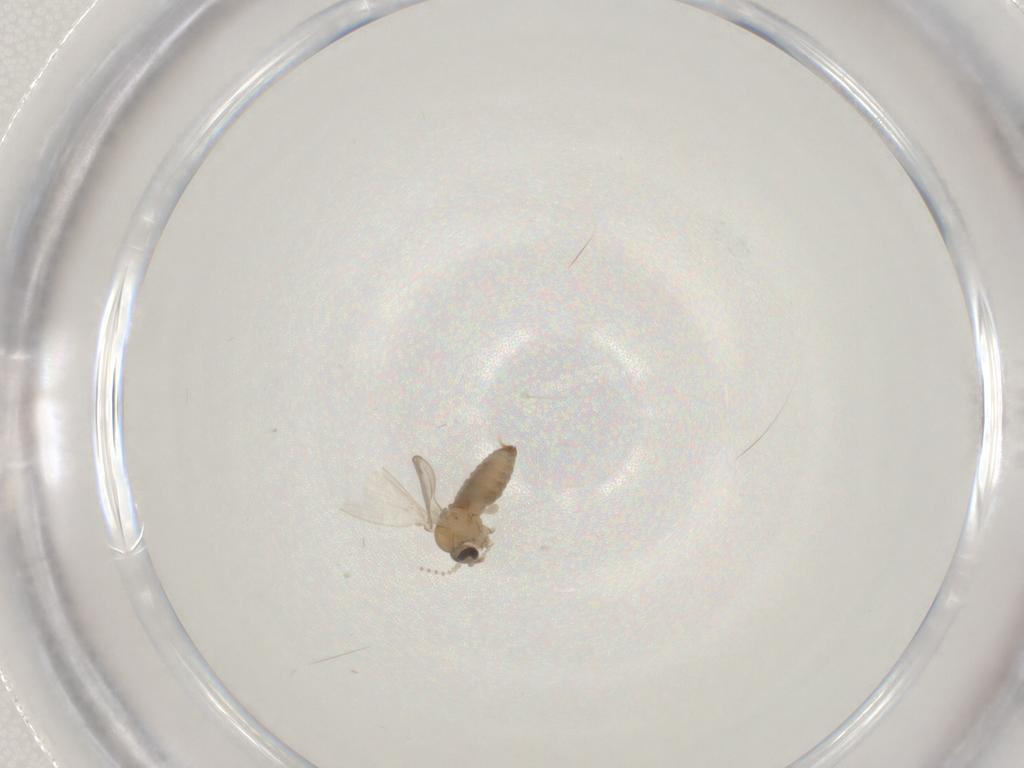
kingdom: Animalia
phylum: Arthropoda
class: Insecta
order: Diptera
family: Psychodidae
